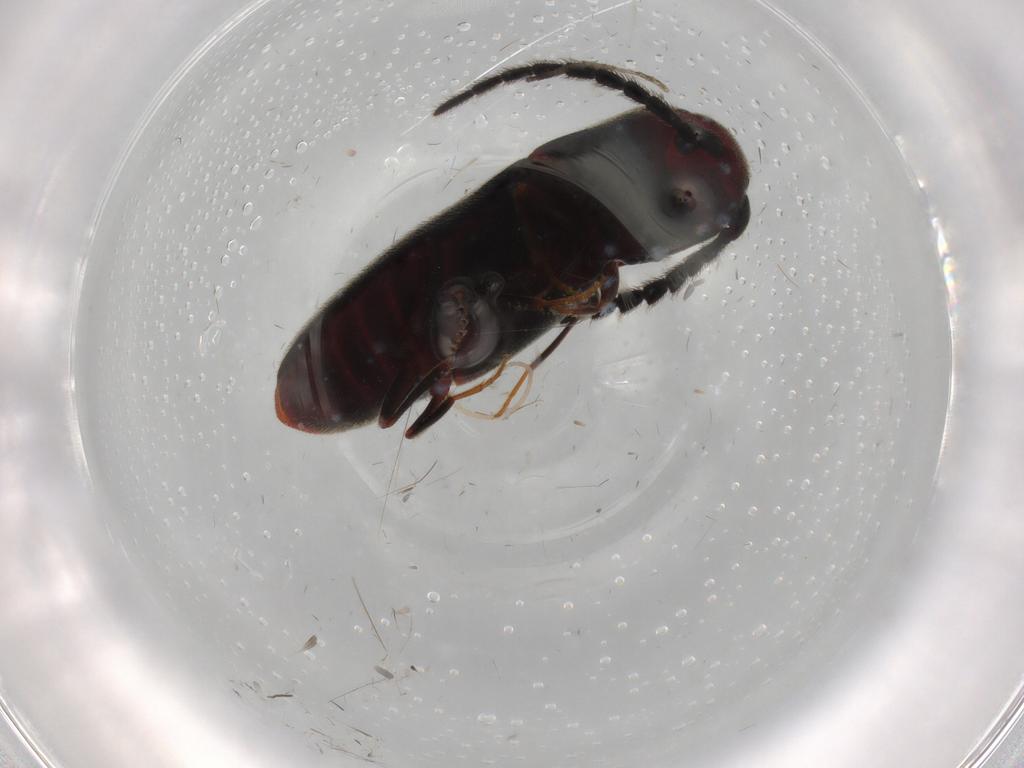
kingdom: Animalia
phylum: Arthropoda
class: Insecta
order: Coleoptera
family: Eucnemidae
